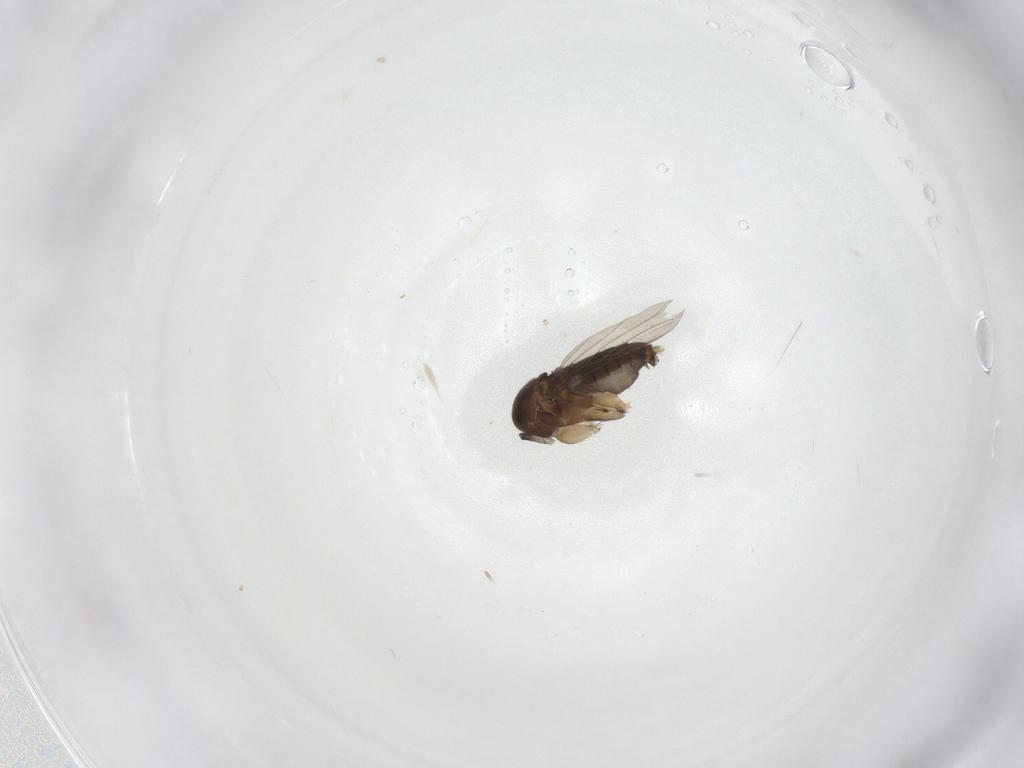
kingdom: Animalia
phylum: Arthropoda
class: Insecta
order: Diptera
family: Phoridae
